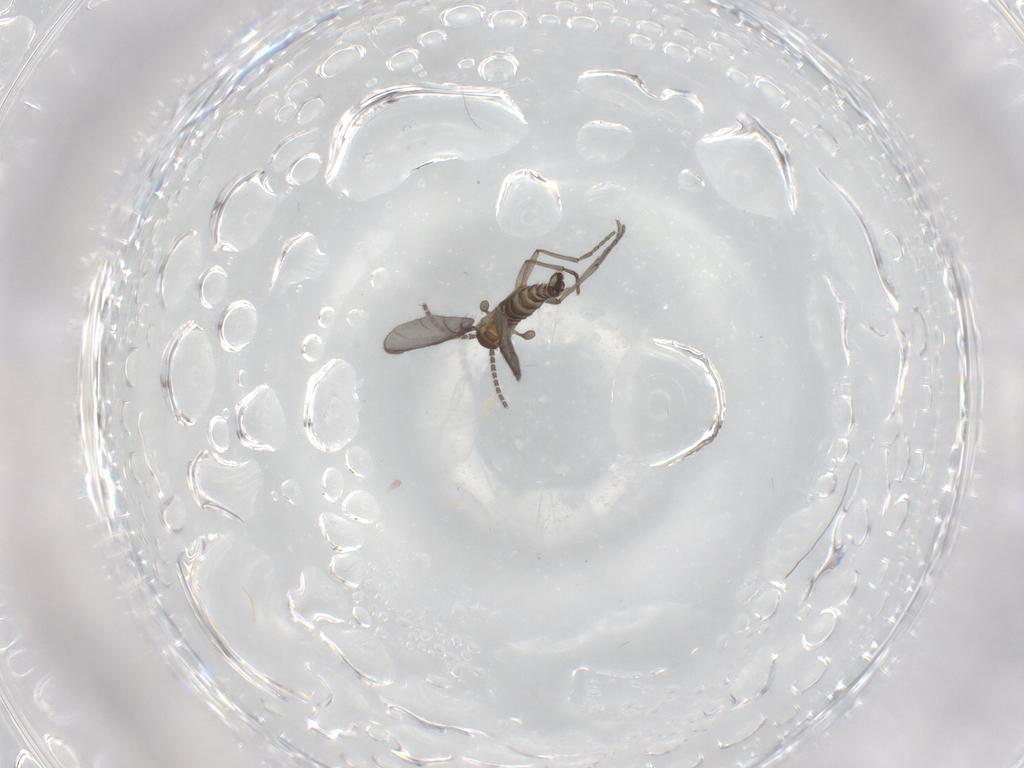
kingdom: Animalia
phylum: Arthropoda
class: Insecta
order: Diptera
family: Sciaridae
